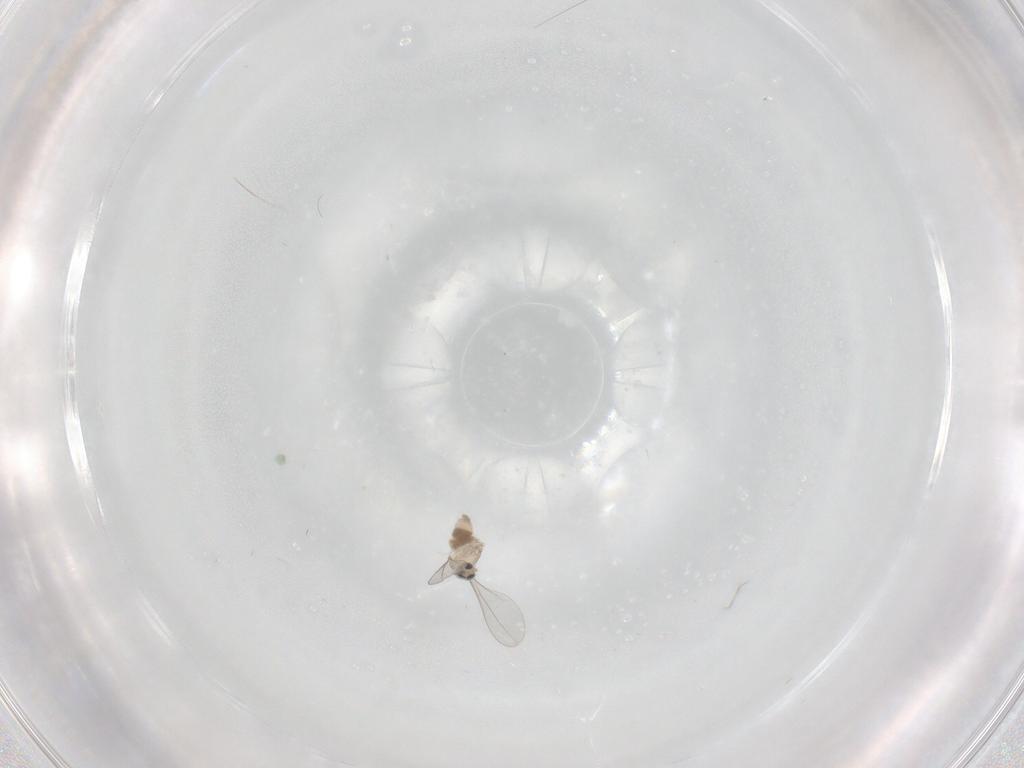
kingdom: Animalia
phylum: Arthropoda
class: Insecta
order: Diptera
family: Cecidomyiidae
